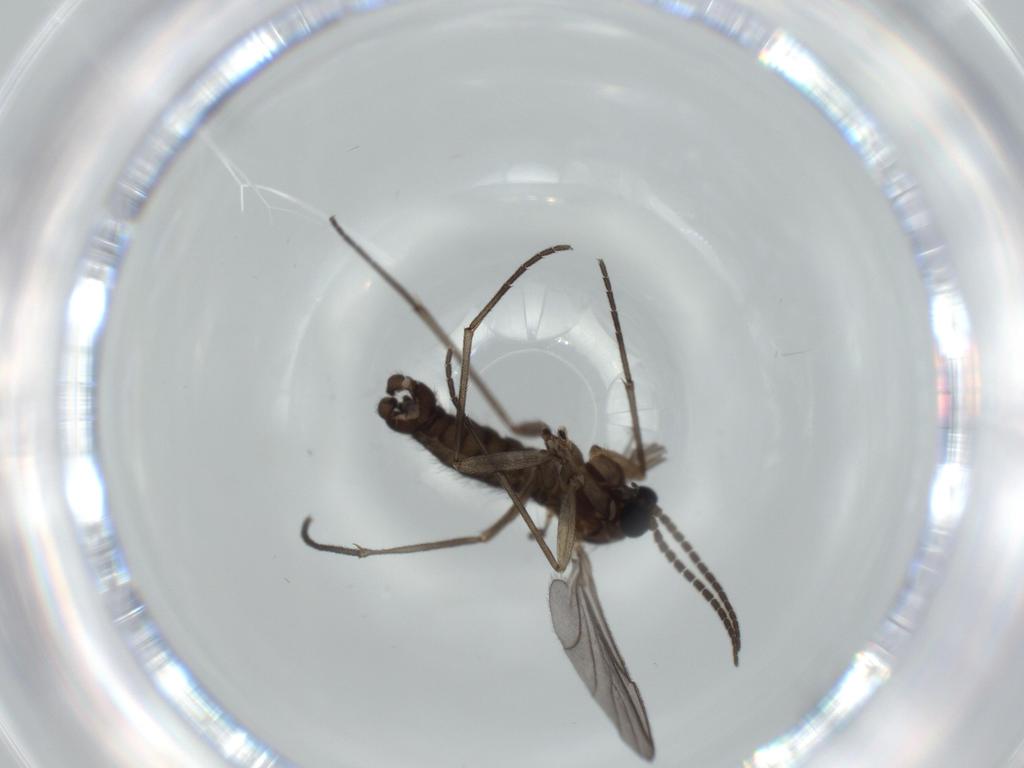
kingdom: Animalia
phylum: Arthropoda
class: Insecta
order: Diptera
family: Sciaridae
